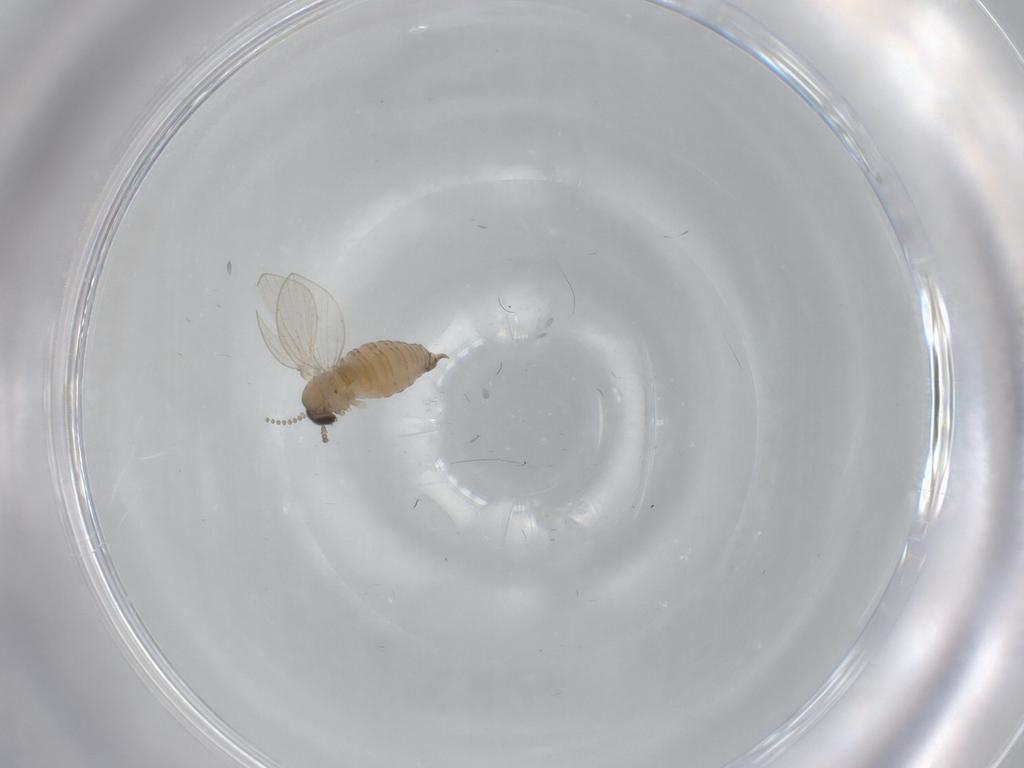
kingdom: Animalia
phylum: Arthropoda
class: Insecta
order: Diptera
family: Psychodidae
